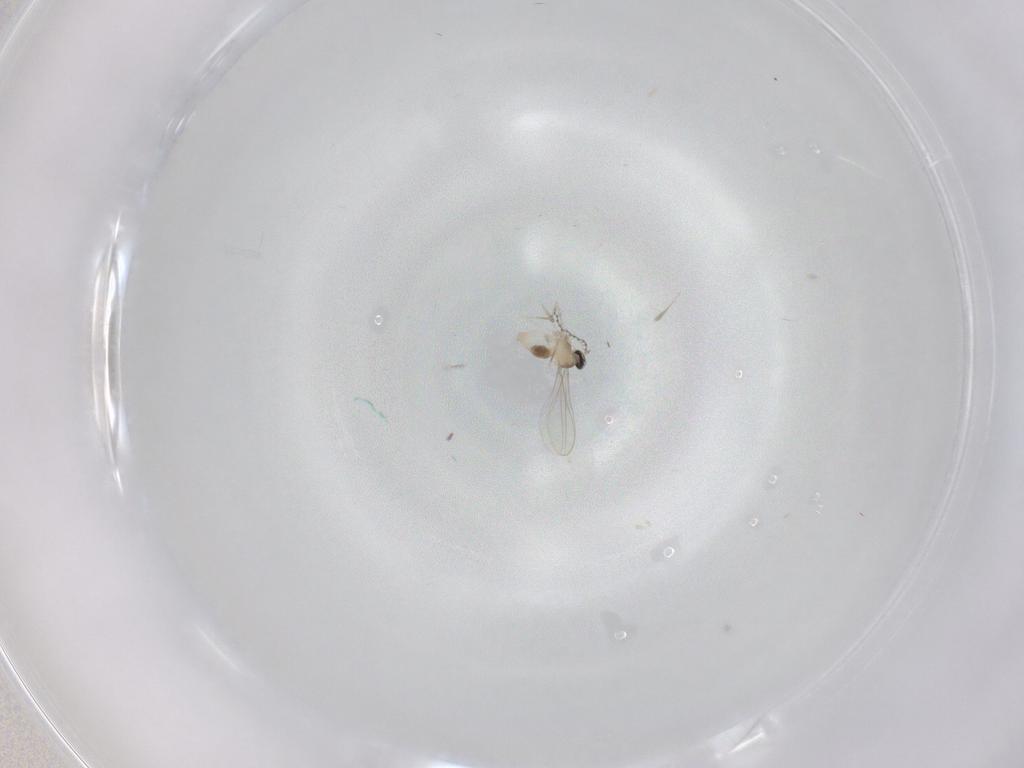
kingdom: Animalia
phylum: Arthropoda
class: Insecta
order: Diptera
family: Cecidomyiidae
